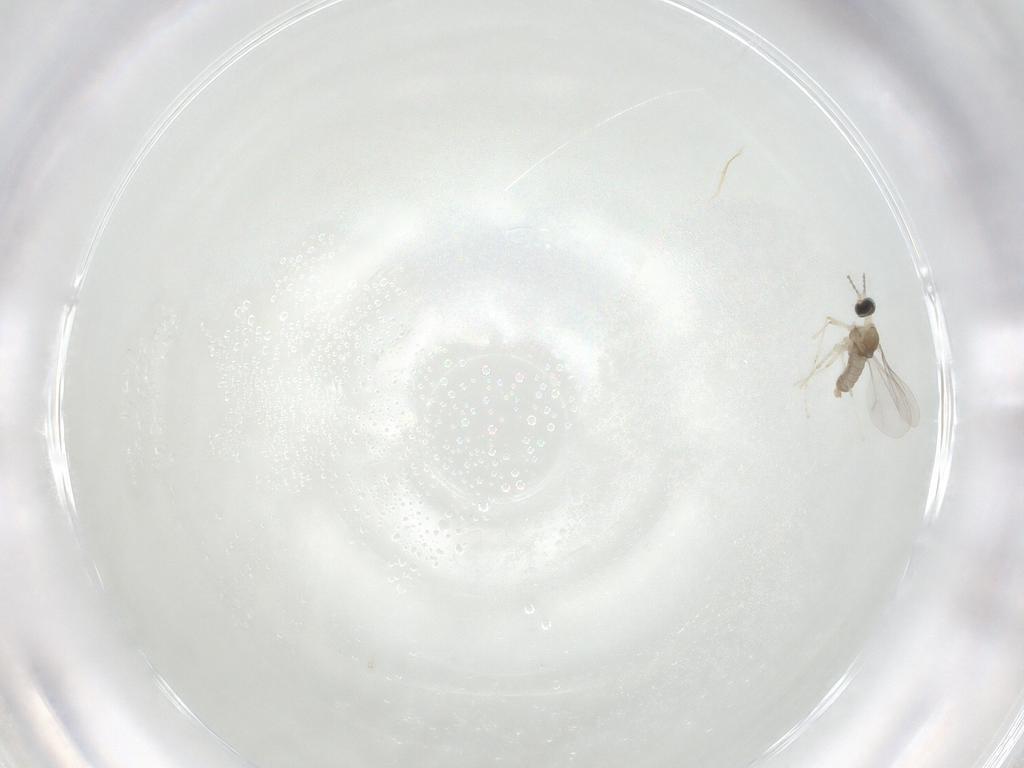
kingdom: Animalia
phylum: Arthropoda
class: Insecta
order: Diptera
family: Cecidomyiidae
